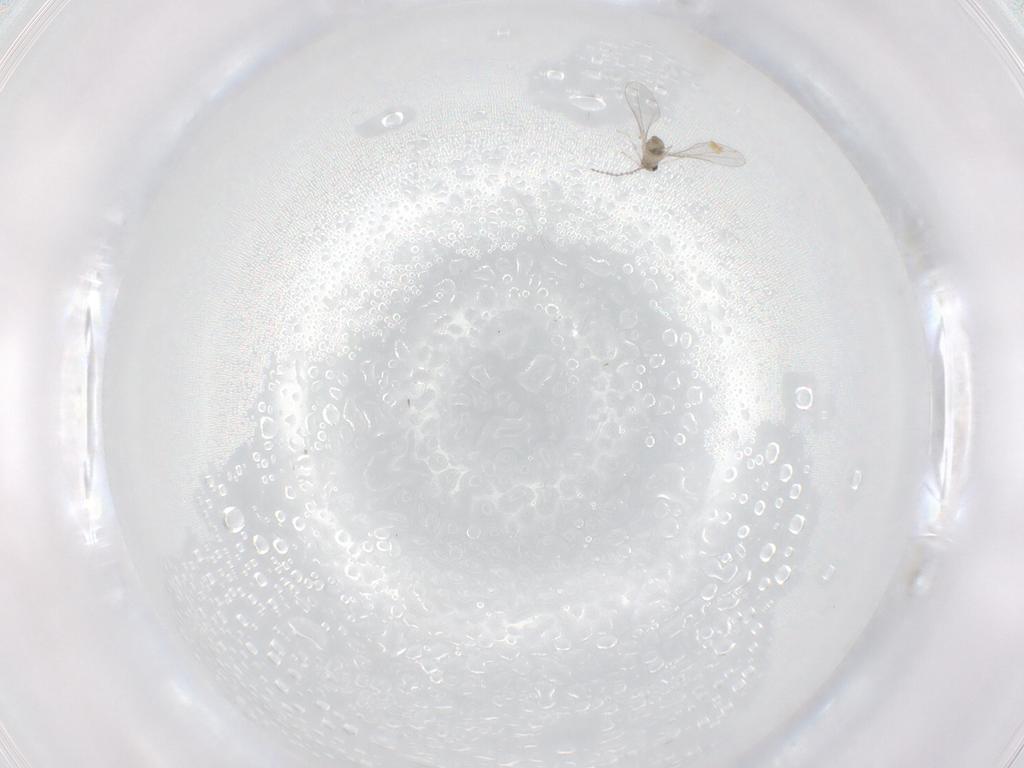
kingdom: Animalia
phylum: Arthropoda
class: Insecta
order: Diptera
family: Cecidomyiidae
